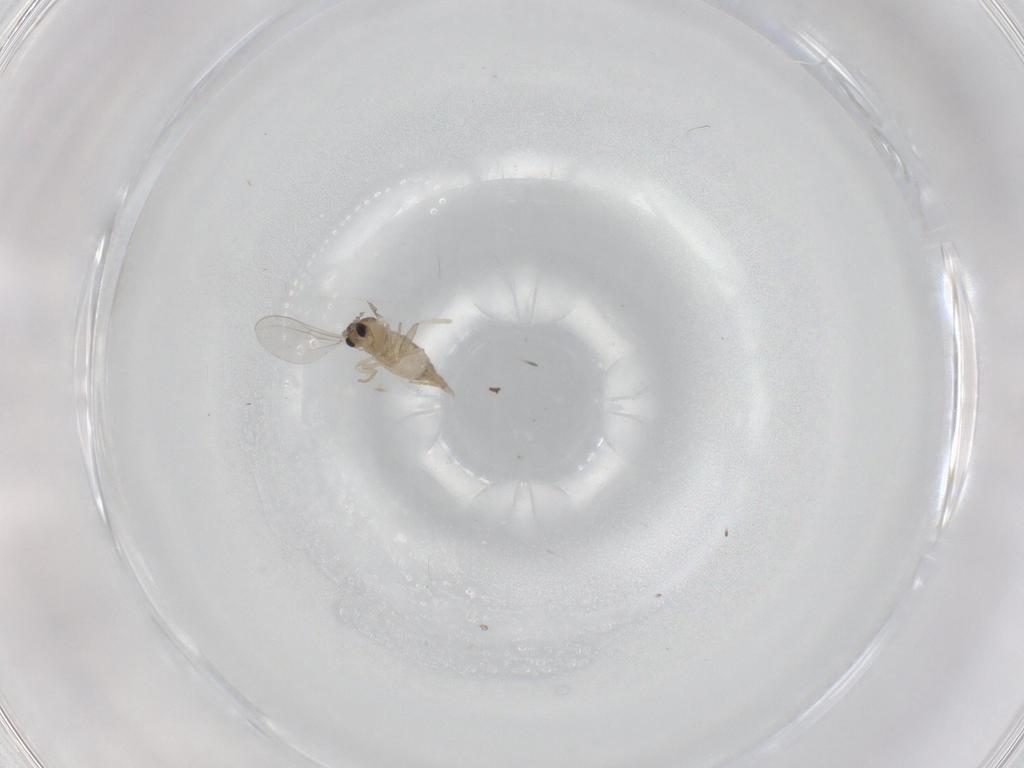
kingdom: Animalia
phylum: Arthropoda
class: Insecta
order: Diptera
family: Cecidomyiidae
